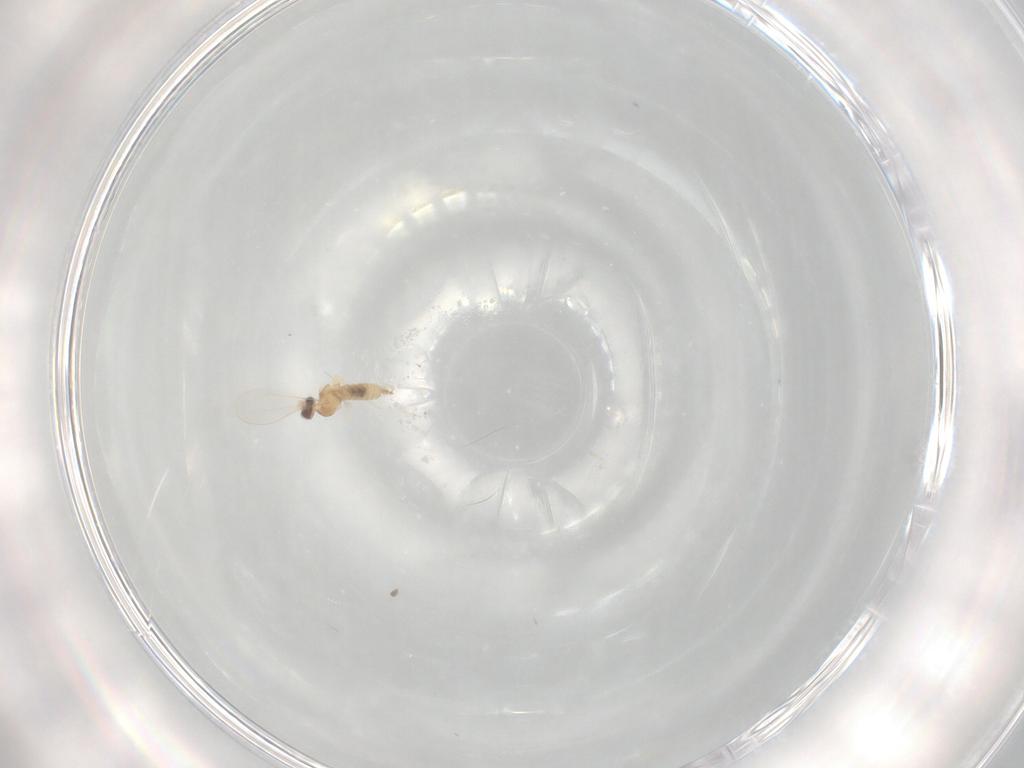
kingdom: Animalia
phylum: Arthropoda
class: Insecta
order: Diptera
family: Cecidomyiidae
